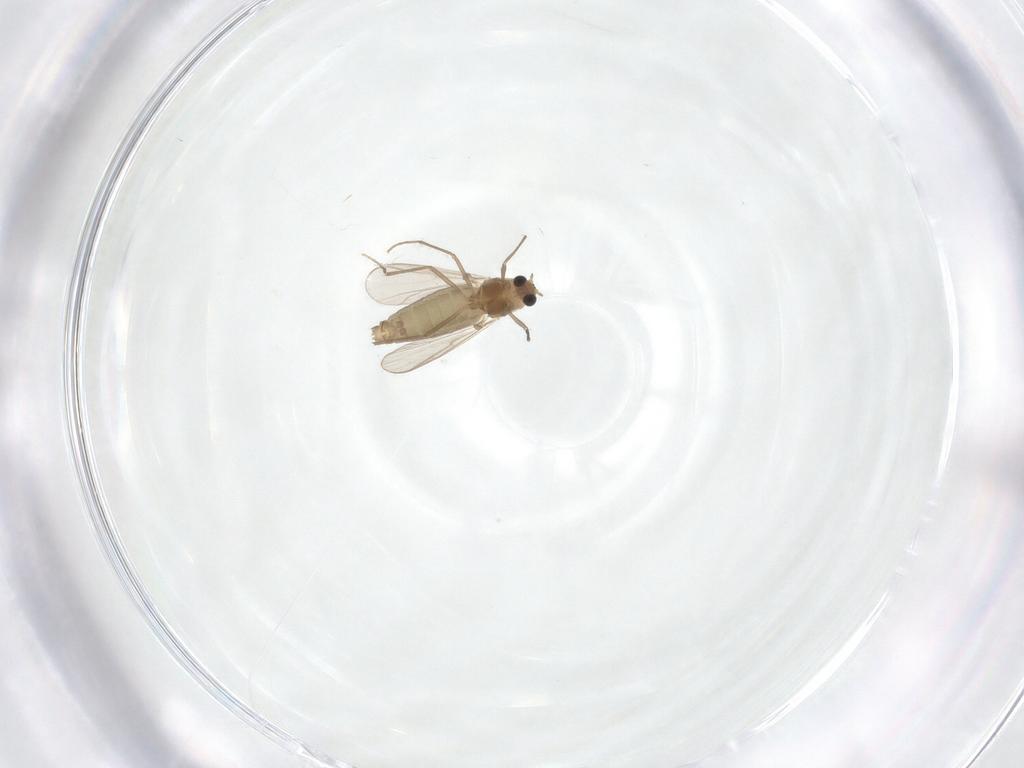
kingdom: Animalia
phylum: Arthropoda
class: Insecta
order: Diptera
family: Chironomidae
